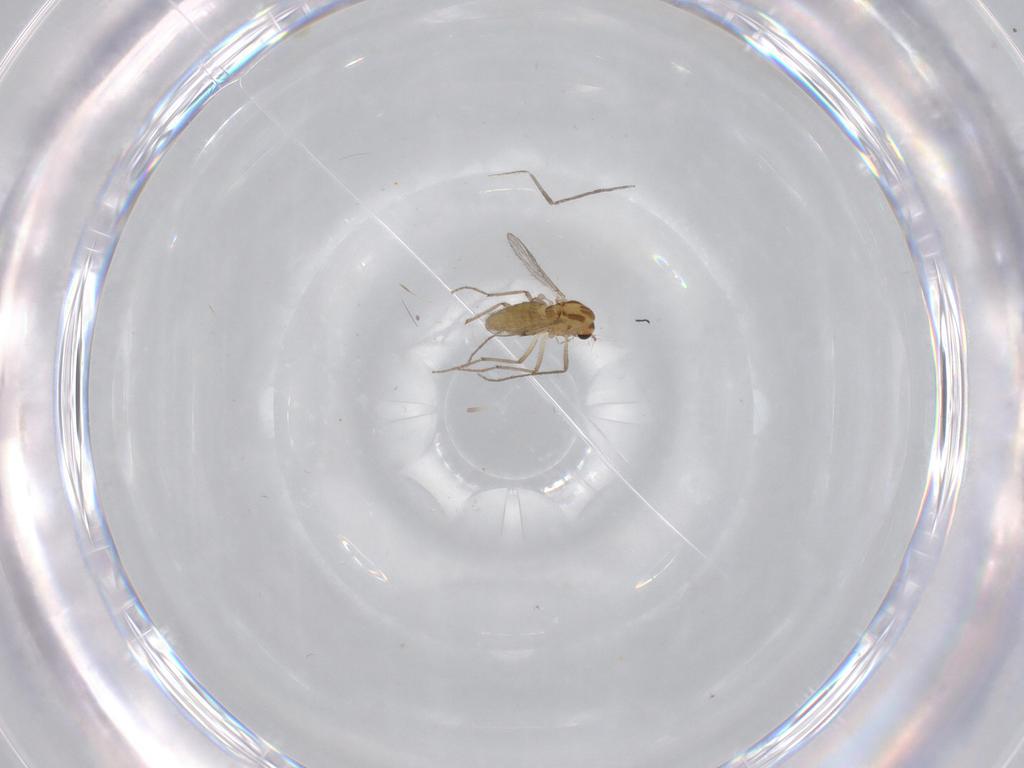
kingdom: Animalia
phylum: Arthropoda
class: Insecta
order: Diptera
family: Chironomidae
